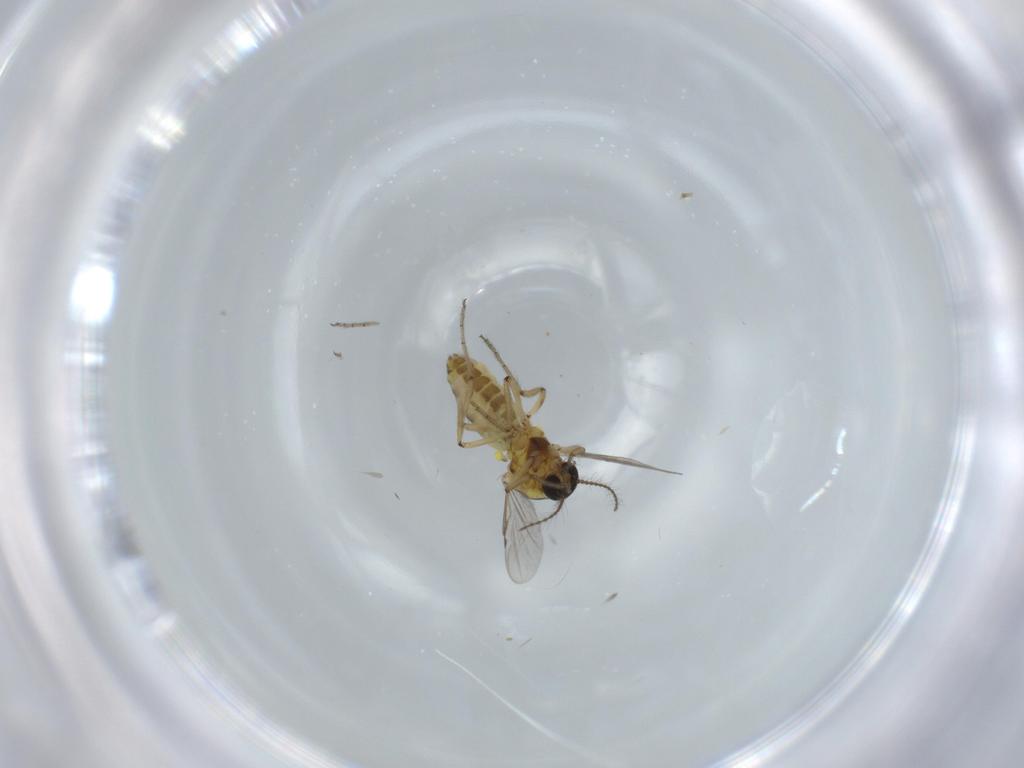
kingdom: Animalia
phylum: Arthropoda
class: Insecta
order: Diptera
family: Ceratopogonidae
